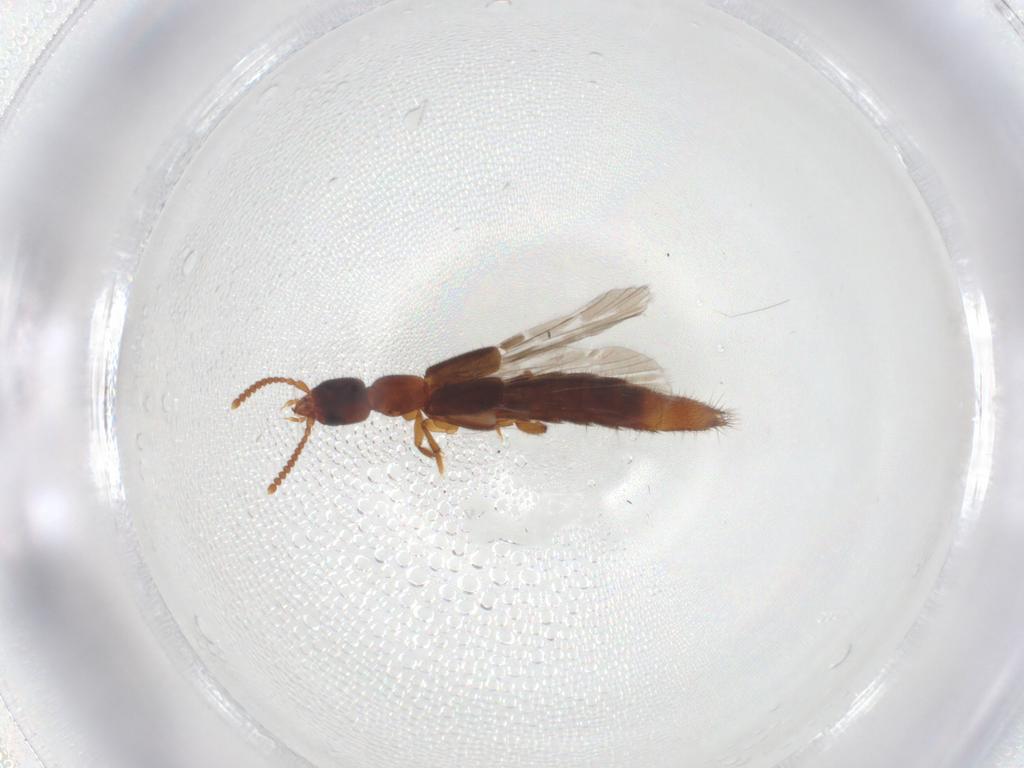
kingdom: Animalia
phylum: Arthropoda
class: Insecta
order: Coleoptera
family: Staphylinidae
